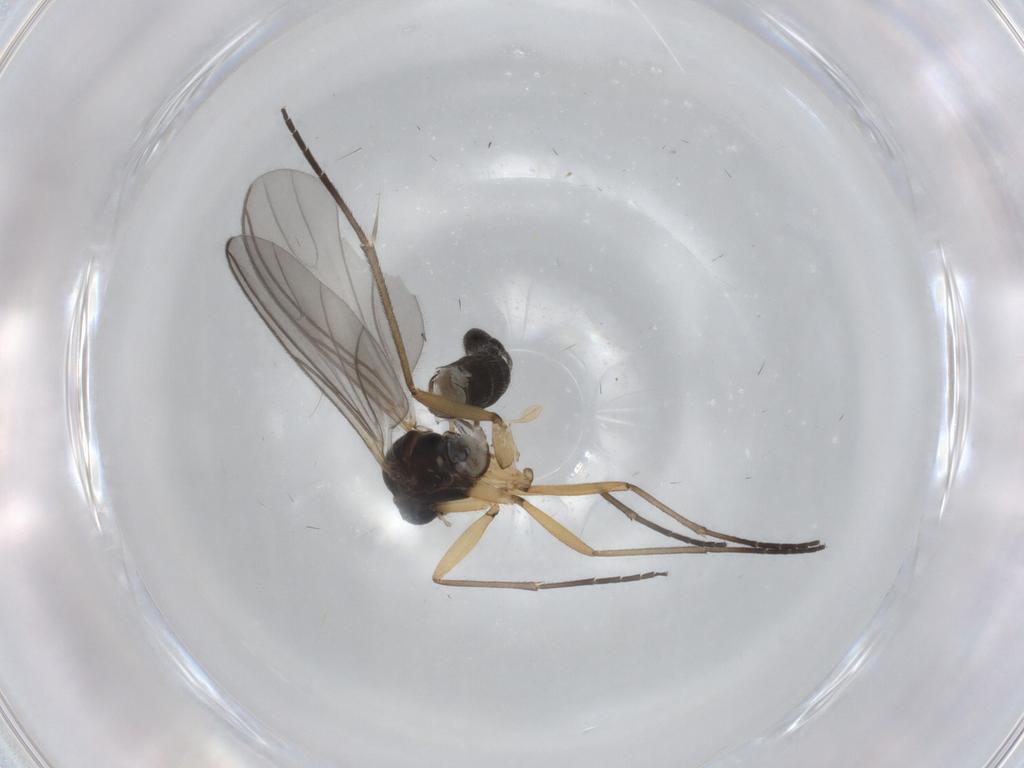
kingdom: Animalia
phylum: Arthropoda
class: Insecta
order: Diptera
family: Sciaridae
